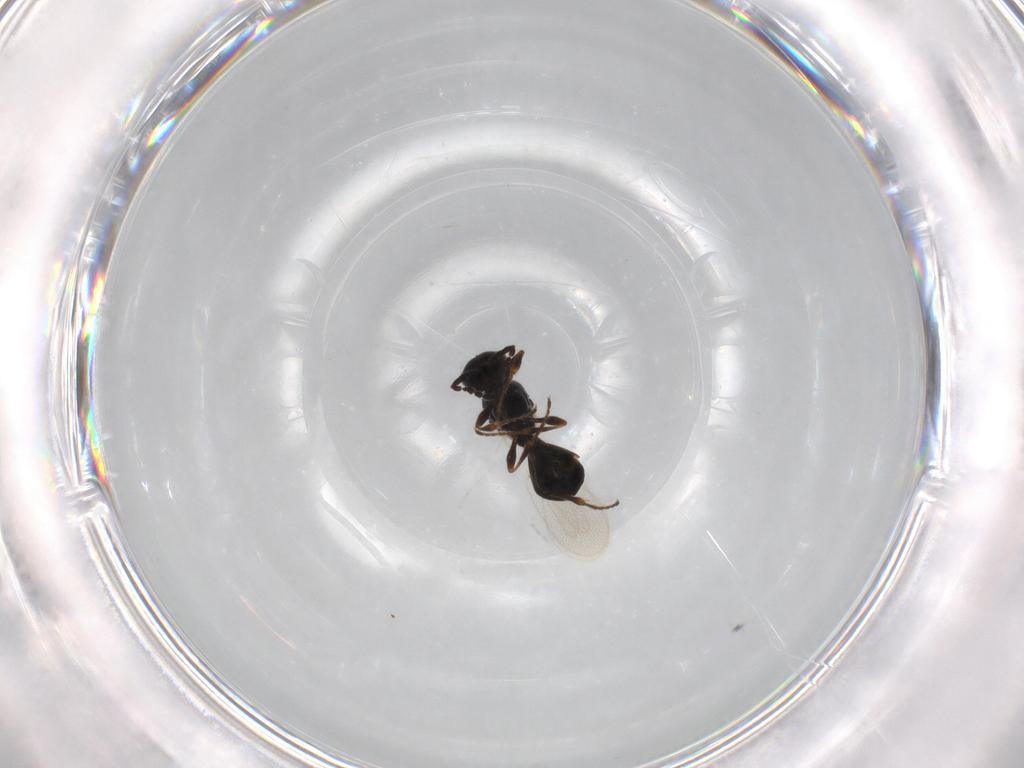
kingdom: Animalia
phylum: Arthropoda
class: Insecta
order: Hymenoptera
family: Platygastridae
